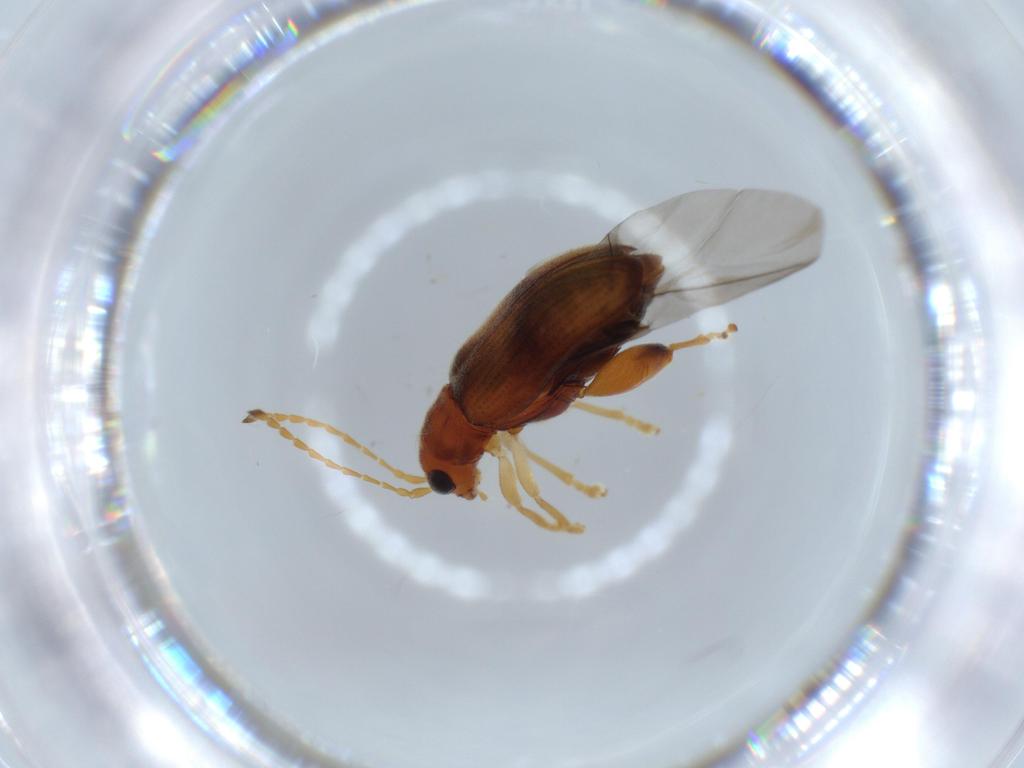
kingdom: Animalia
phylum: Arthropoda
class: Insecta
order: Coleoptera
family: Chrysomelidae
